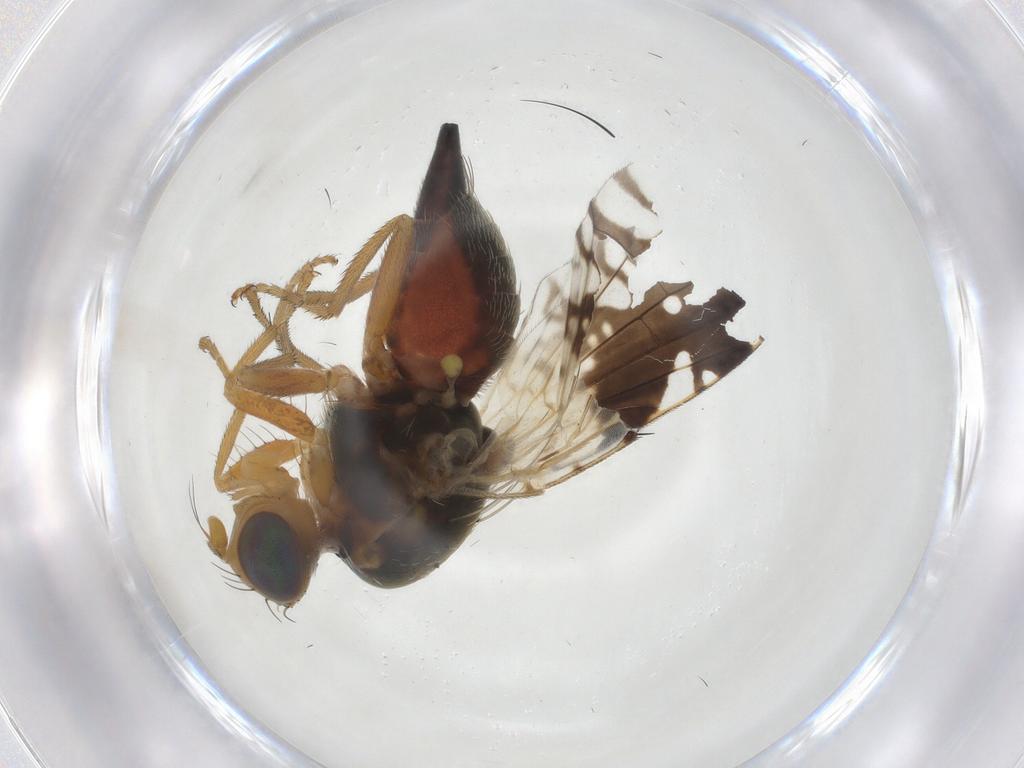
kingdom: Animalia
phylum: Arthropoda
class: Insecta
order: Diptera
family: Tephritidae
